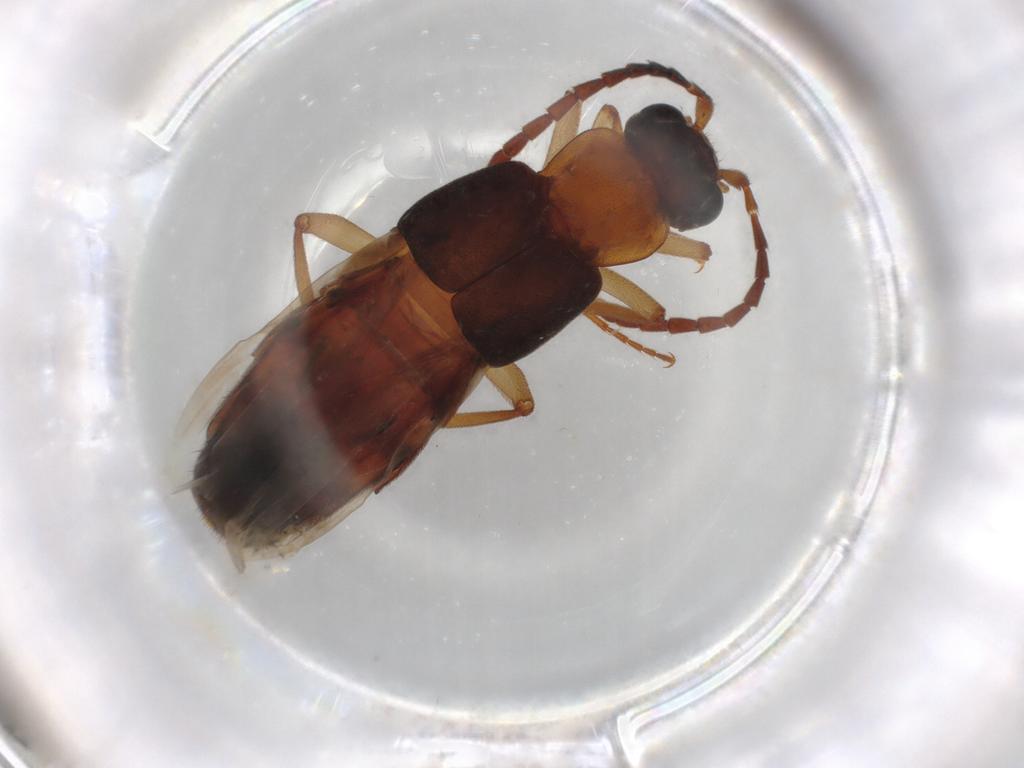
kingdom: Animalia
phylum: Arthropoda
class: Insecta
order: Coleoptera
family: Staphylinidae
